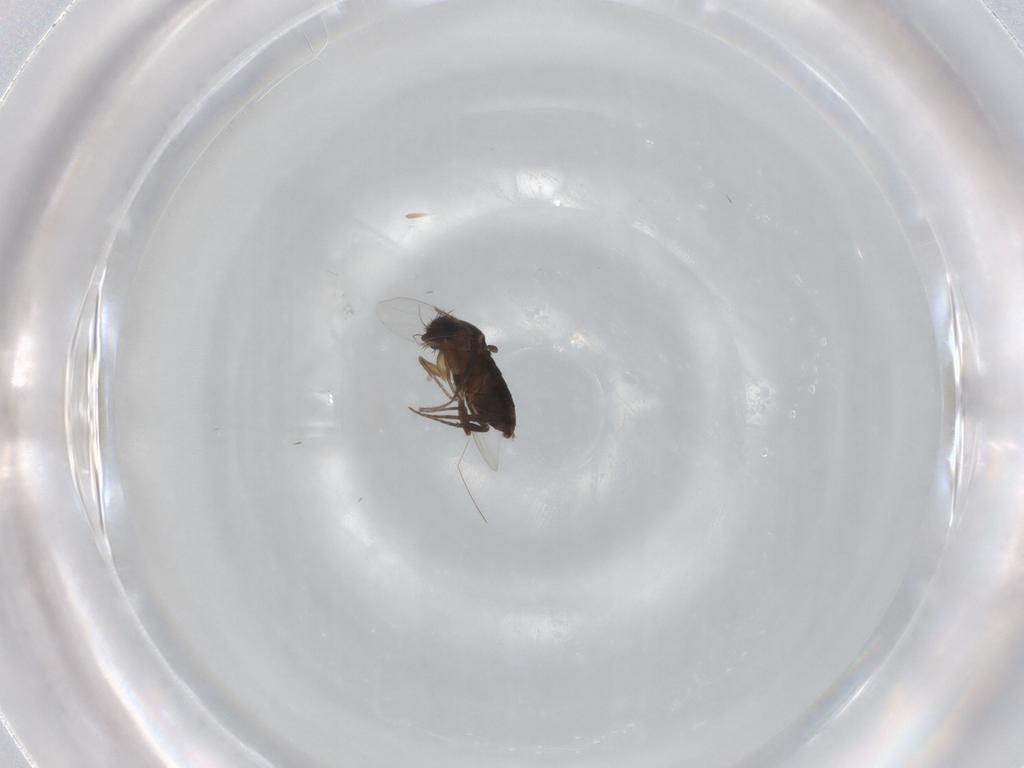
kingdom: Animalia
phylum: Arthropoda
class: Insecta
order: Diptera
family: Phoridae
